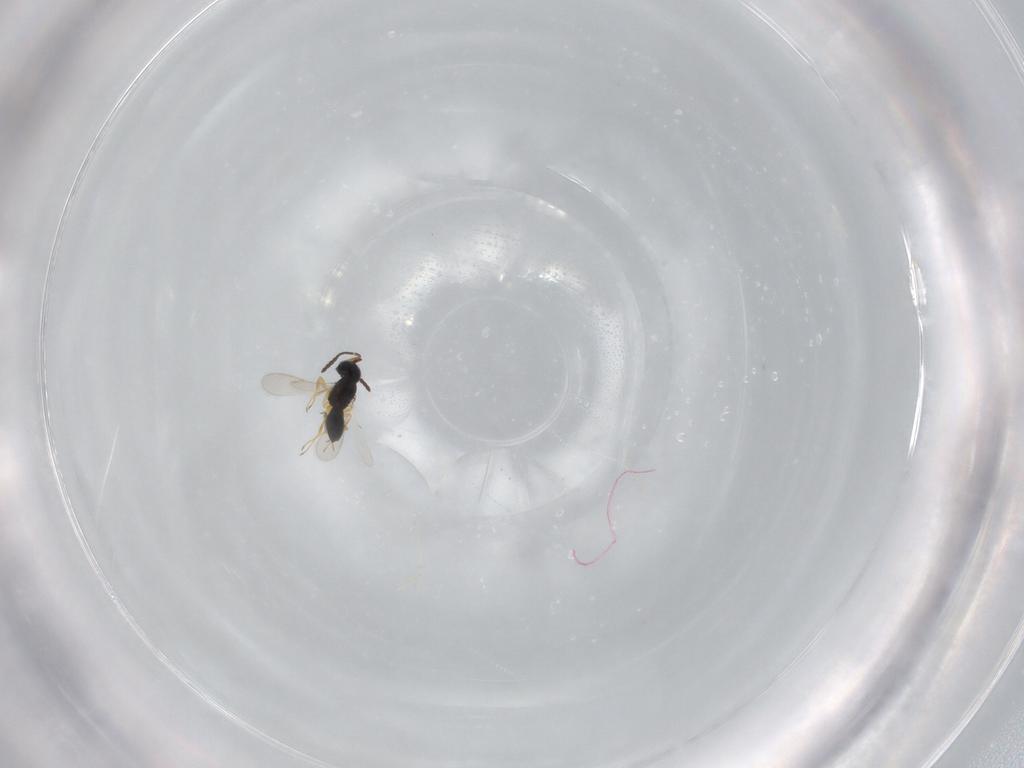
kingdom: Animalia
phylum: Arthropoda
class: Insecta
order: Hymenoptera
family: Scelionidae
